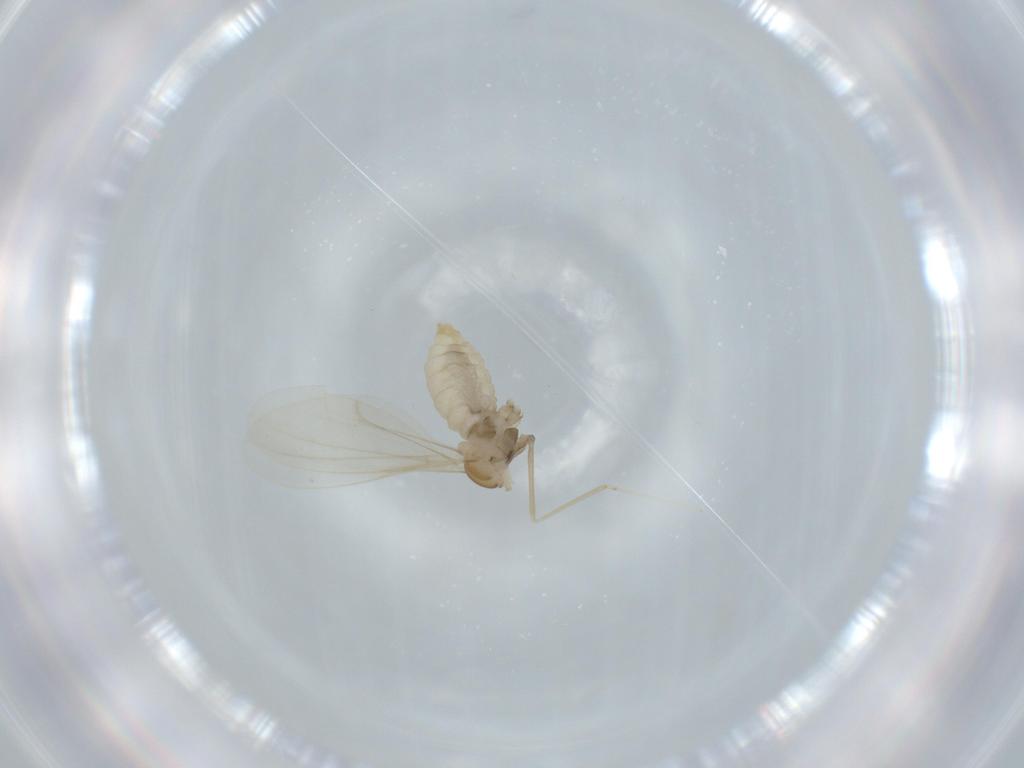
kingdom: Animalia
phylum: Arthropoda
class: Insecta
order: Diptera
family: Cecidomyiidae
